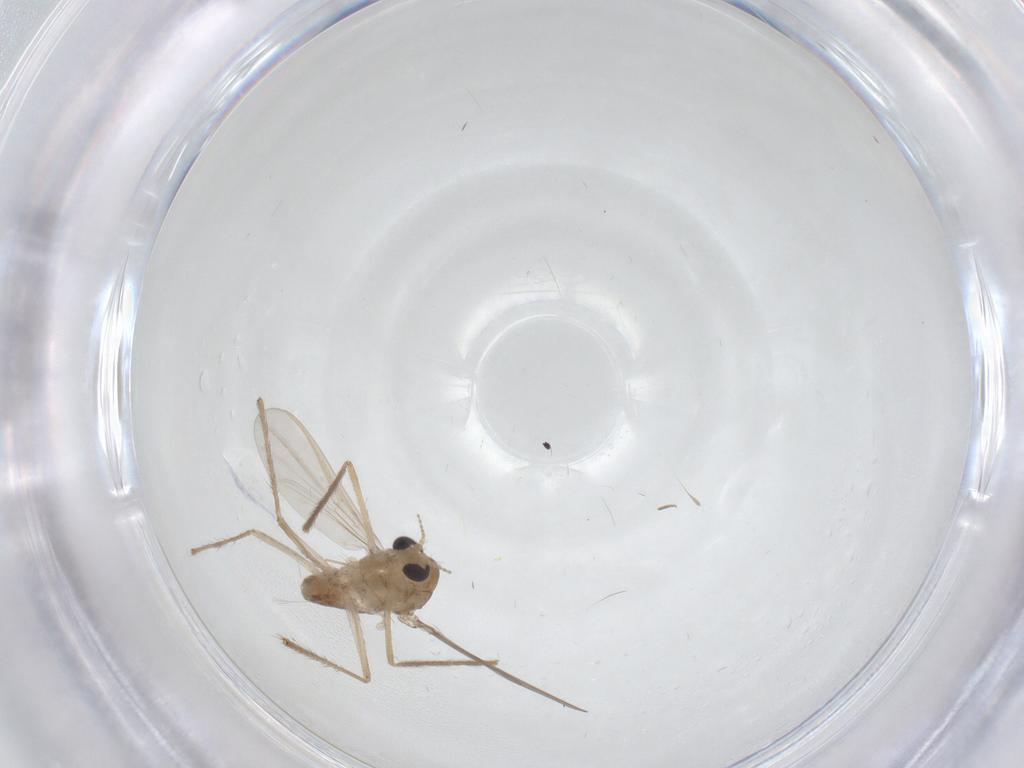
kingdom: Animalia
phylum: Arthropoda
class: Insecta
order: Diptera
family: Chironomidae
